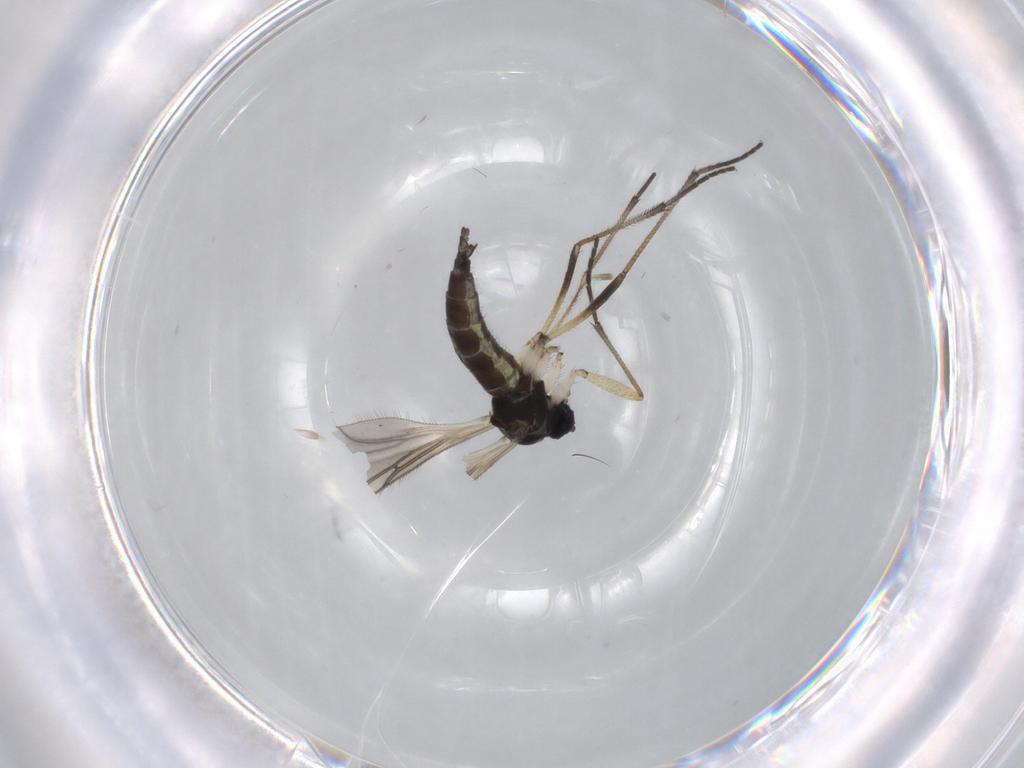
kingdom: Animalia
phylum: Arthropoda
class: Insecta
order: Diptera
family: Sciaridae
